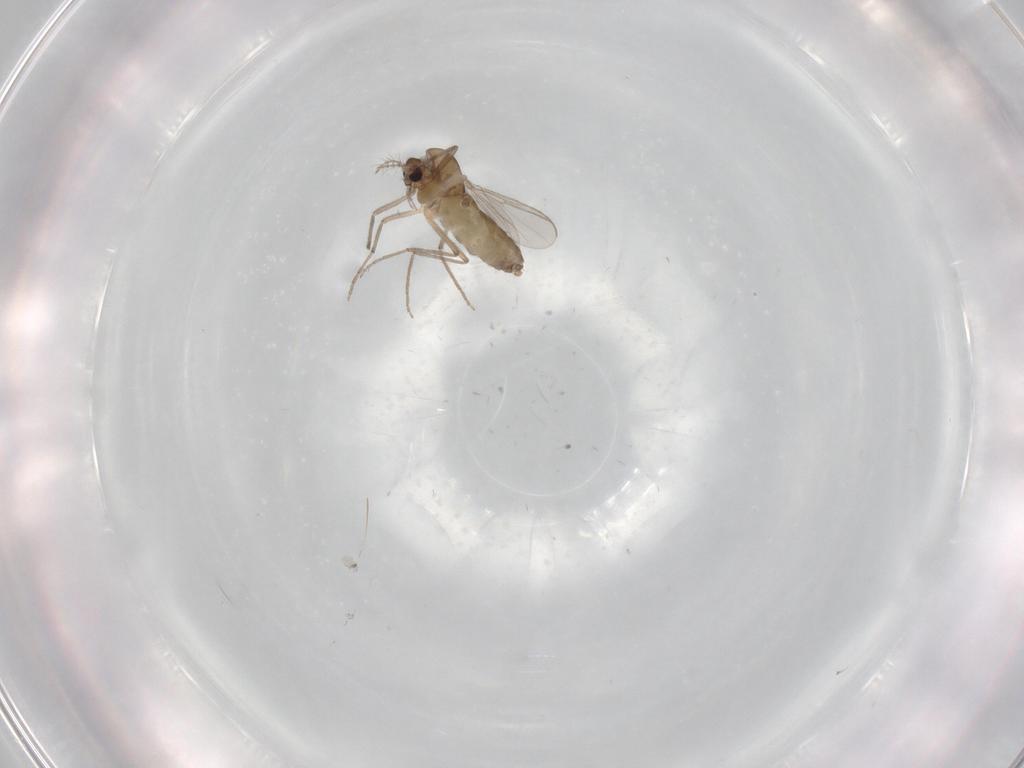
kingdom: Animalia
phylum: Arthropoda
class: Insecta
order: Diptera
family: Chironomidae
